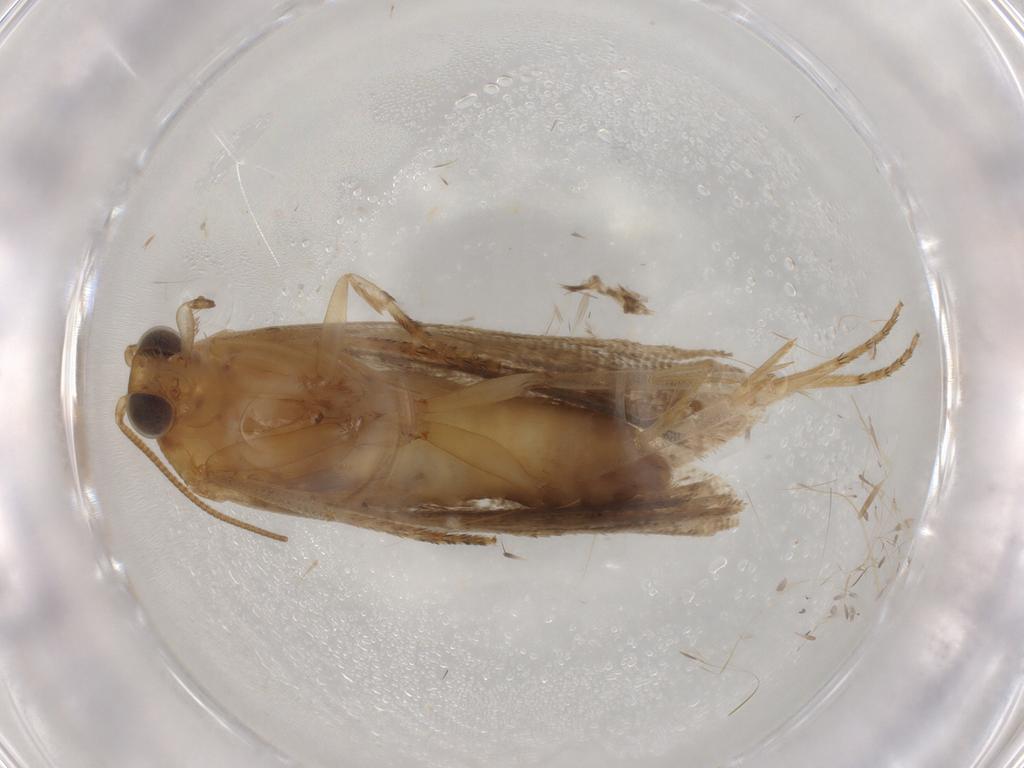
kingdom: Animalia
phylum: Arthropoda
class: Insecta
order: Lepidoptera
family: Tortricidae
